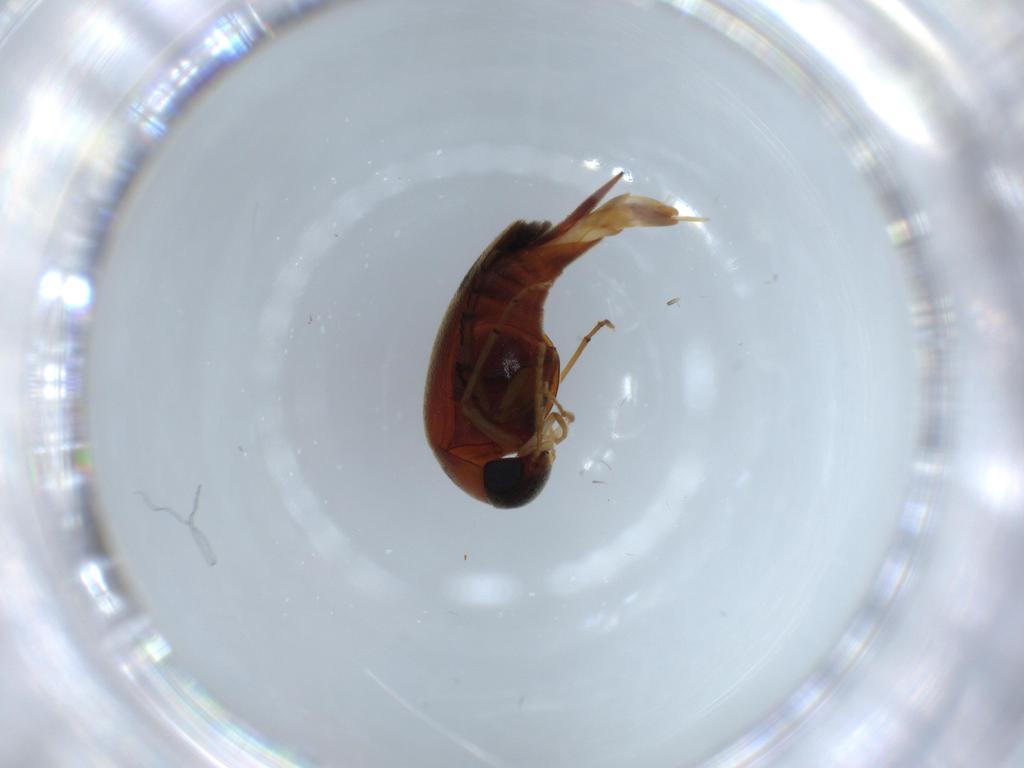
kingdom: Animalia
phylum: Arthropoda
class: Insecta
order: Coleoptera
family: Mordellidae
